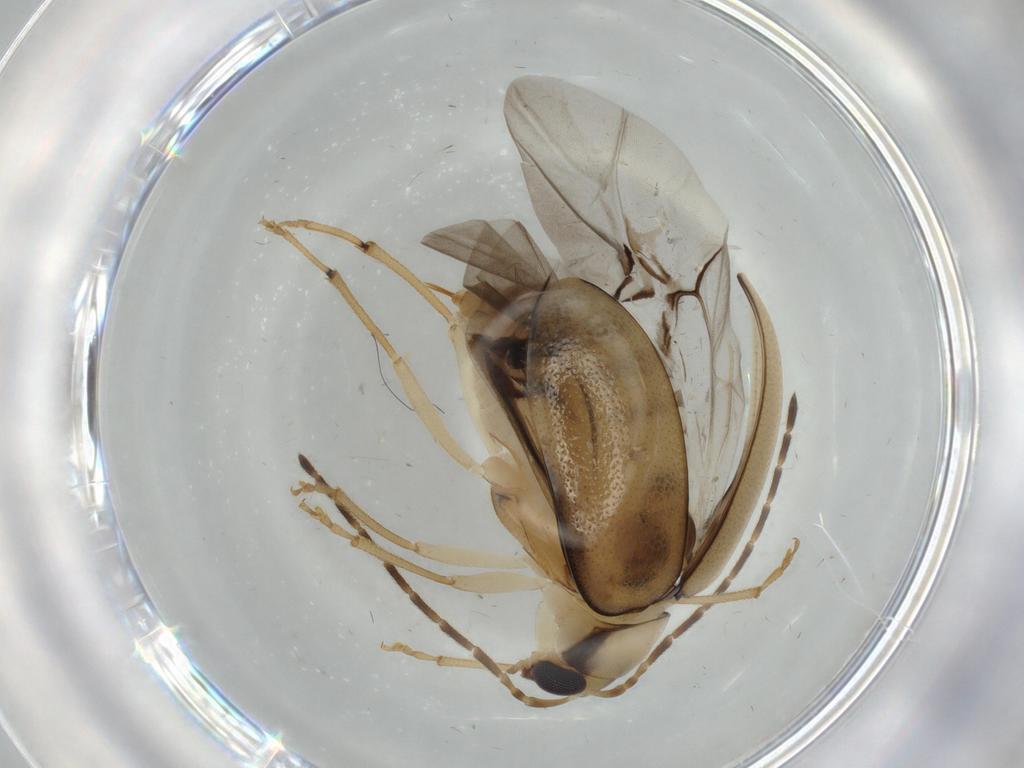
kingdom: Animalia
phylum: Arthropoda
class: Insecta
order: Coleoptera
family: Chrysomelidae
